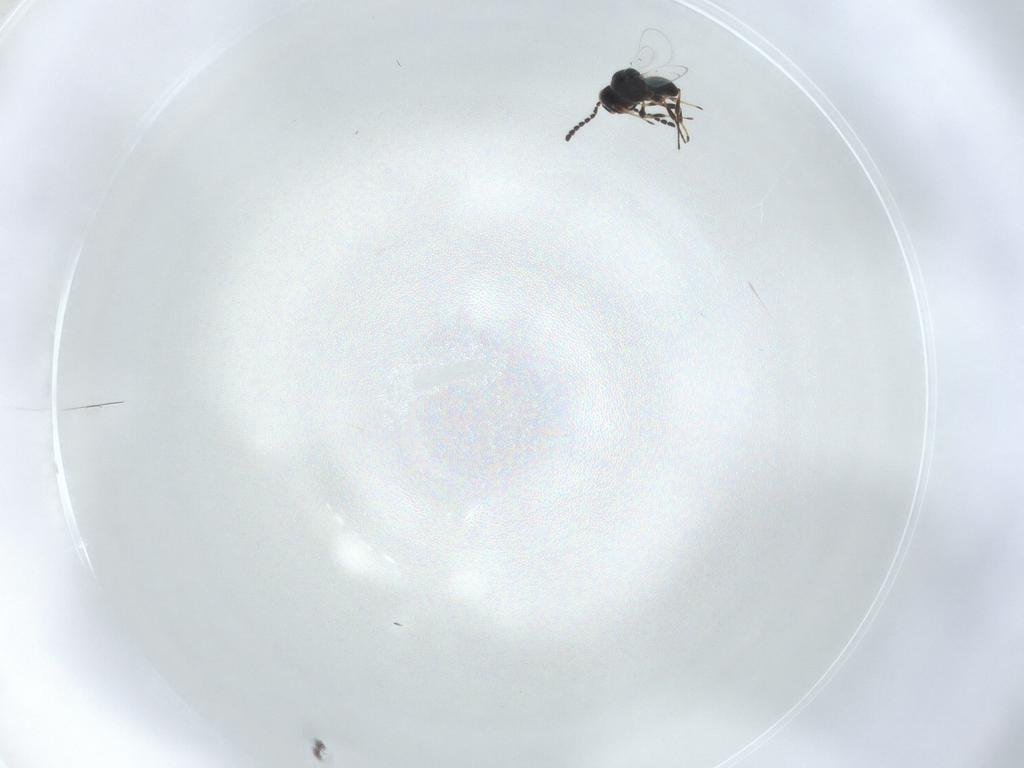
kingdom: Animalia
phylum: Arthropoda
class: Insecta
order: Hymenoptera
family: Platygastridae
